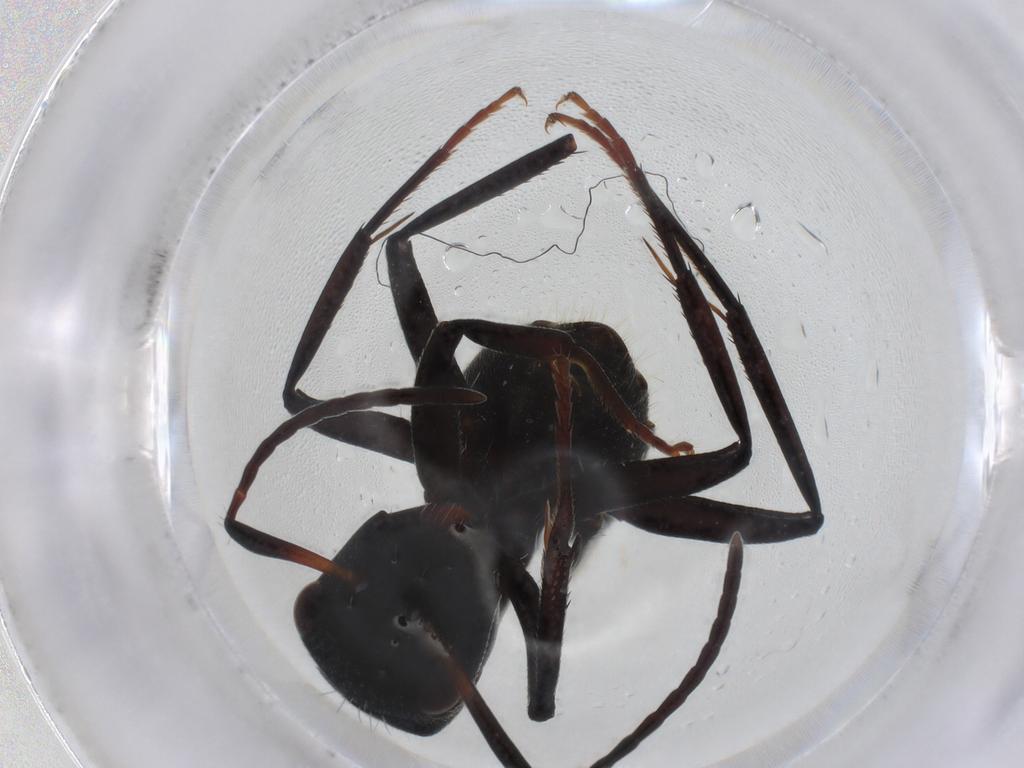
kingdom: Animalia
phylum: Arthropoda
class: Insecta
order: Hymenoptera
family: Formicidae
